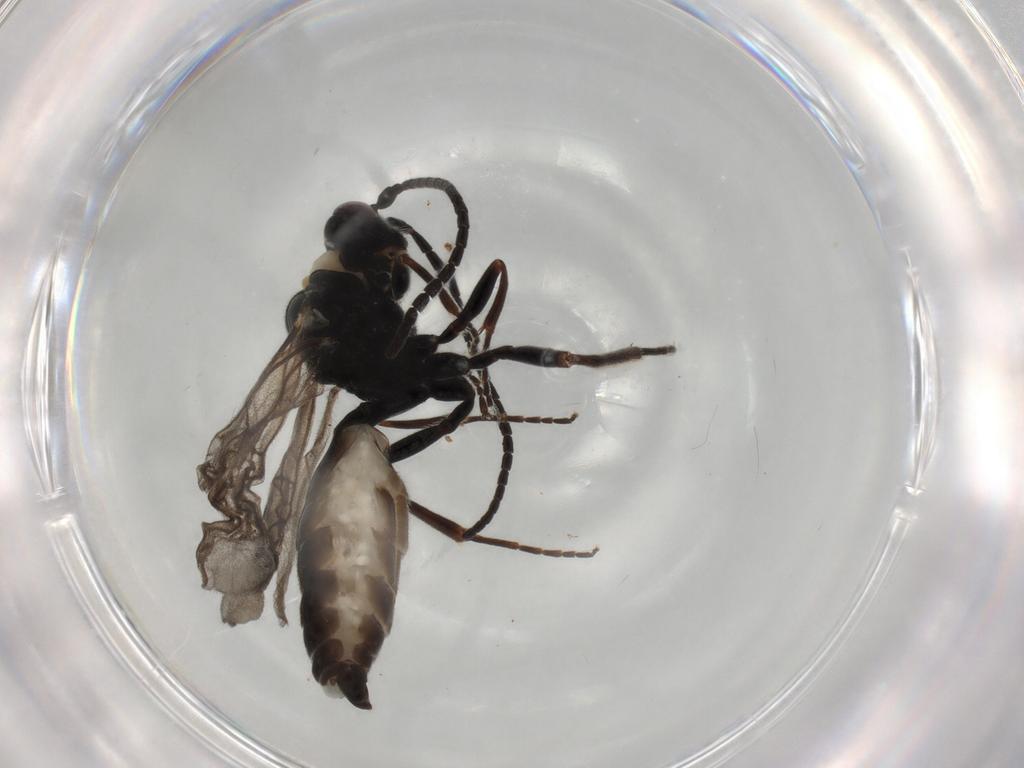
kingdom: Animalia
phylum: Arthropoda
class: Insecta
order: Hymenoptera
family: Ichneumonidae
